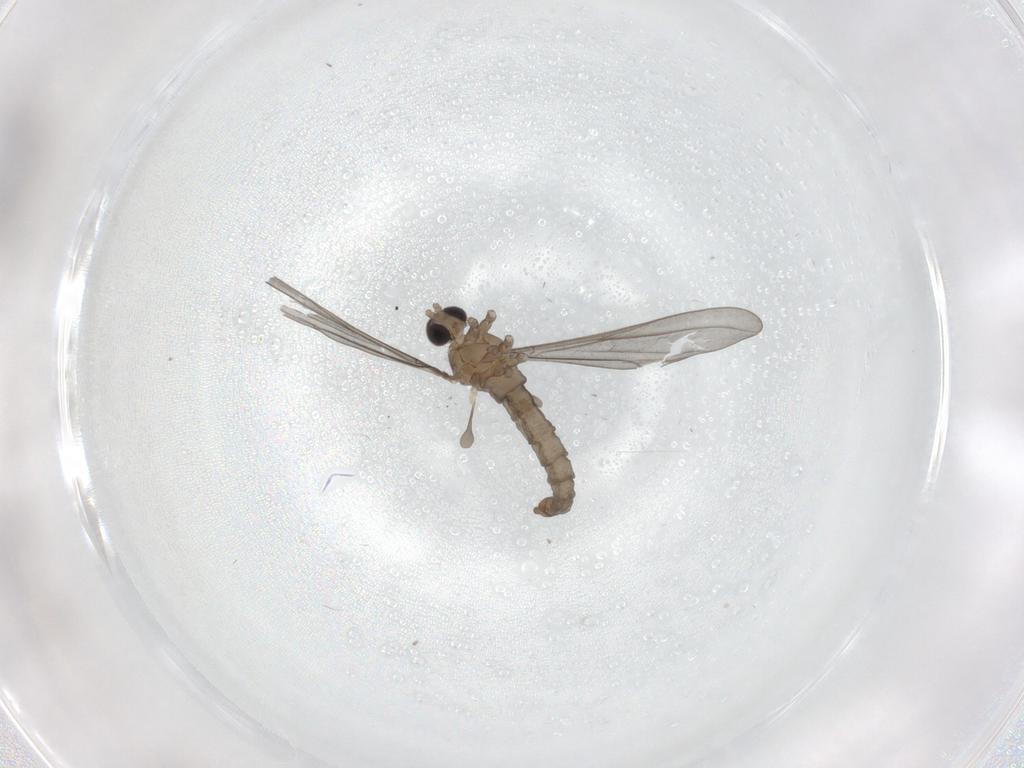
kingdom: Animalia
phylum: Arthropoda
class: Insecta
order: Diptera
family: Cecidomyiidae
